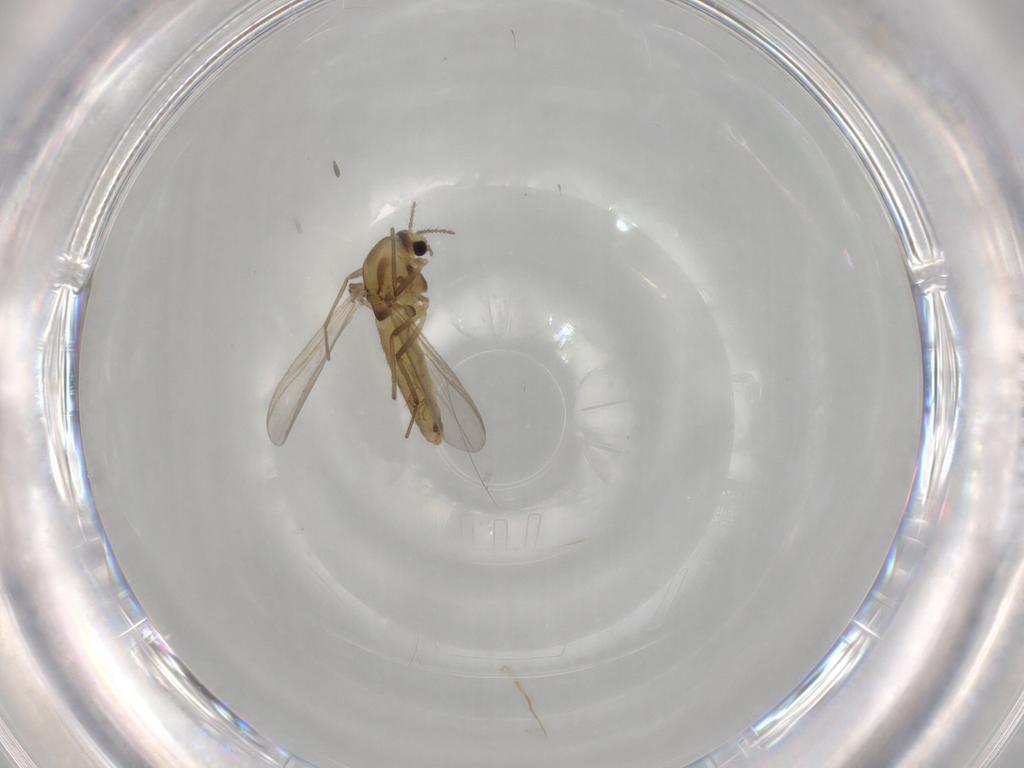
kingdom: Animalia
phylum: Arthropoda
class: Insecta
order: Diptera
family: Chironomidae
